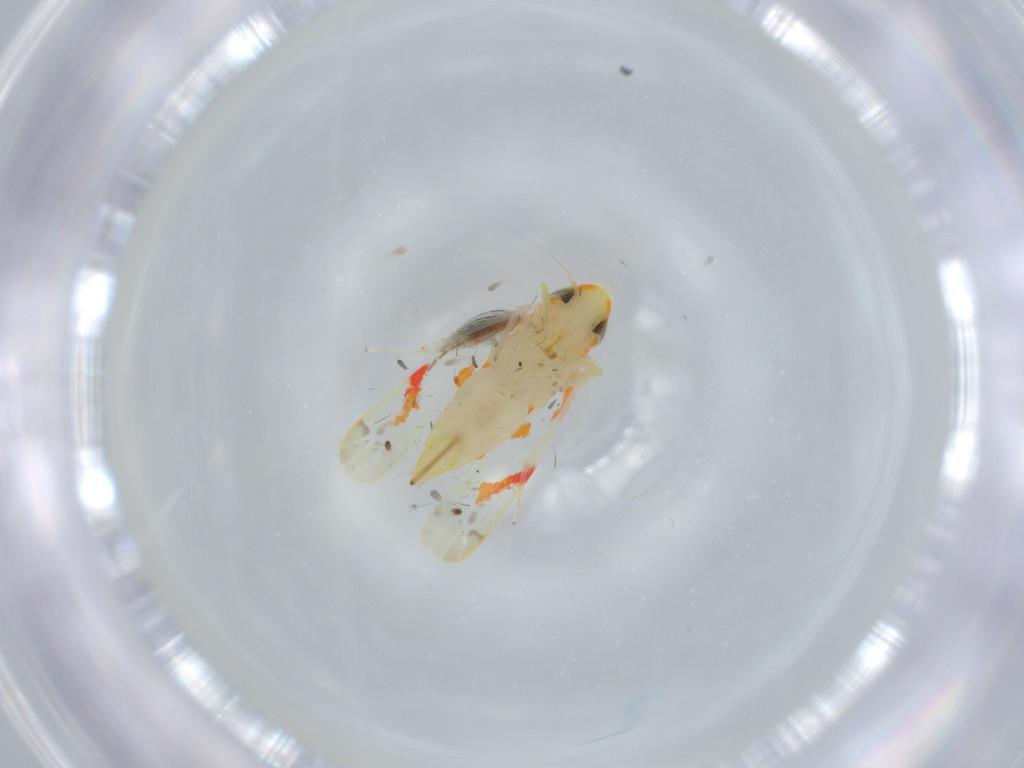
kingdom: Animalia
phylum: Arthropoda
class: Insecta
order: Hemiptera
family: Cicadellidae
